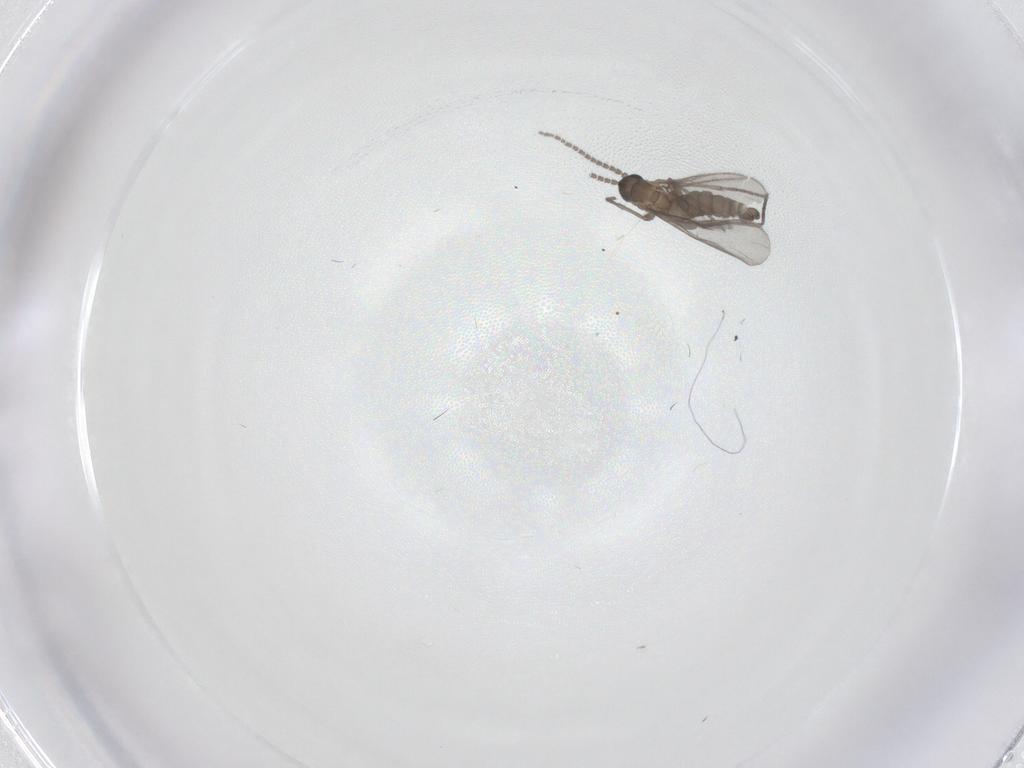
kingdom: Animalia
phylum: Arthropoda
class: Insecta
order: Diptera
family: Sciaridae
